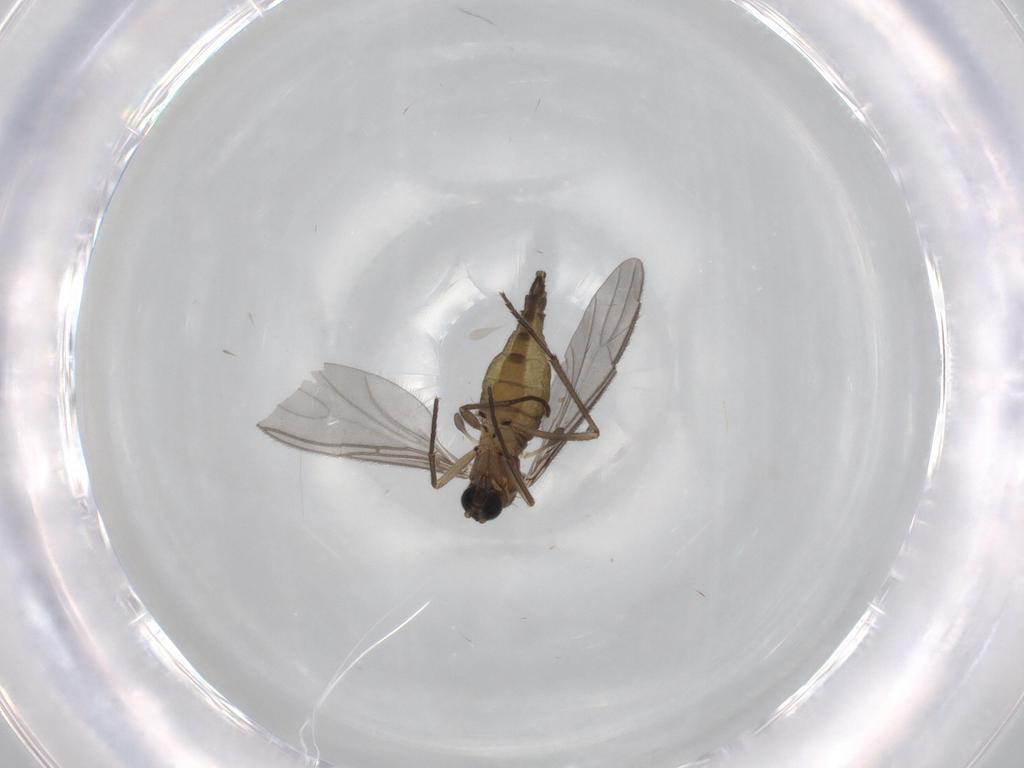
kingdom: Animalia
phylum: Arthropoda
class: Insecta
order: Diptera
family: Sciaridae
